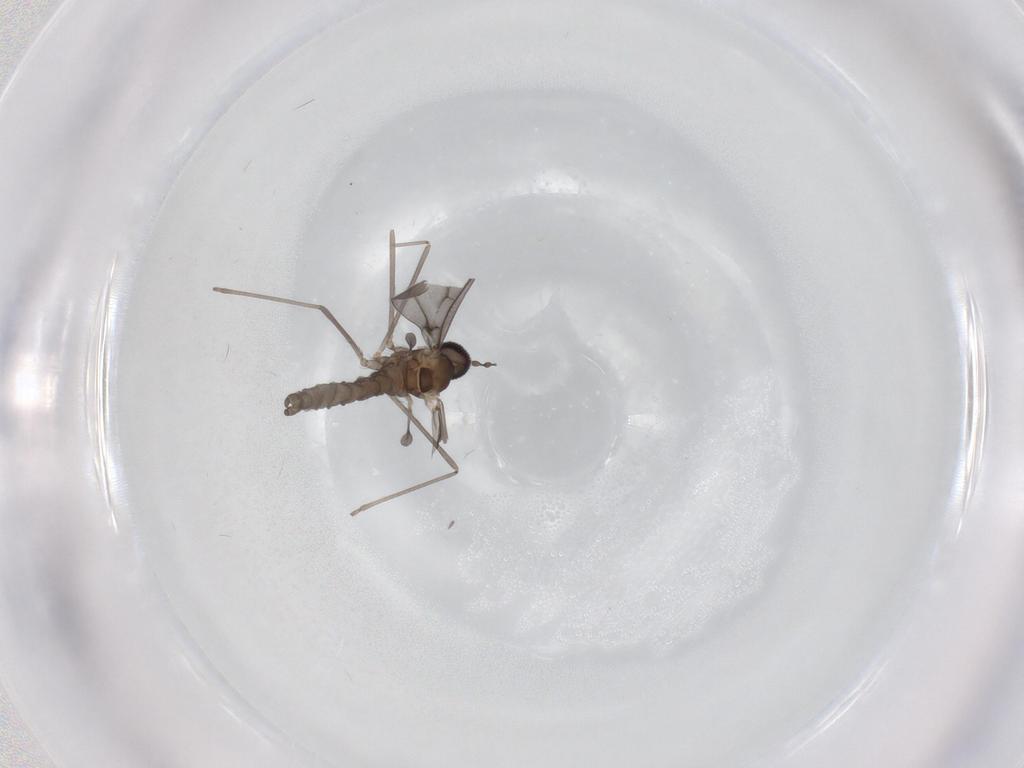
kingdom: Animalia
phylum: Arthropoda
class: Insecta
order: Diptera
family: Cecidomyiidae
